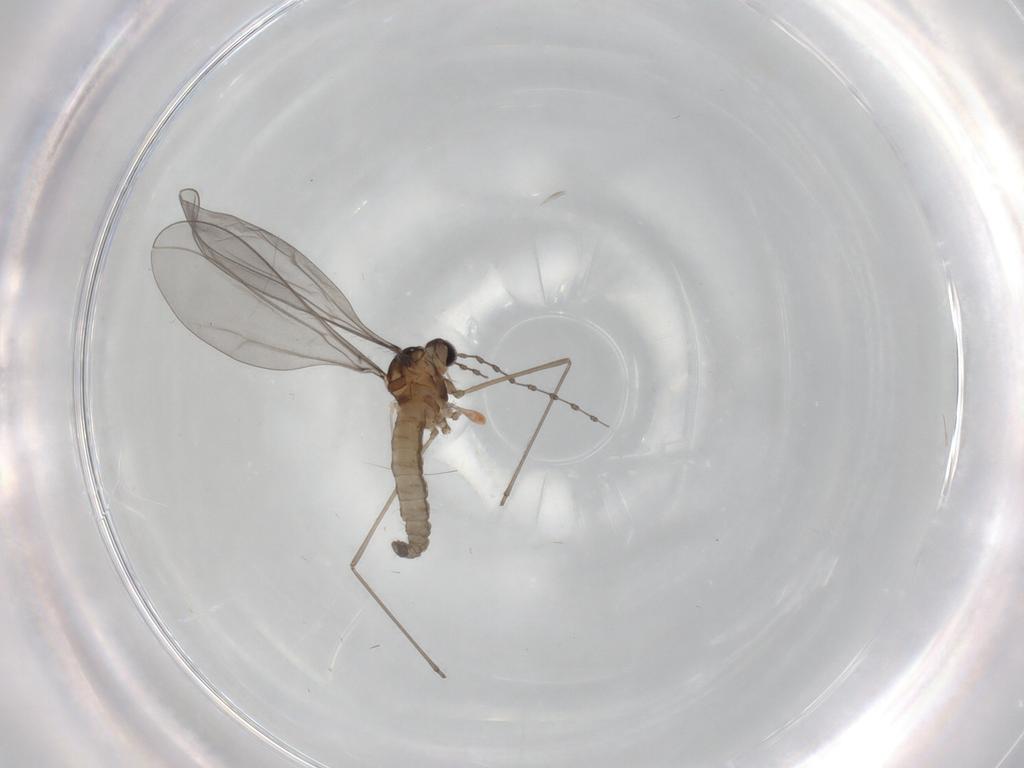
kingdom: Animalia
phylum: Arthropoda
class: Insecta
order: Diptera
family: Cecidomyiidae
